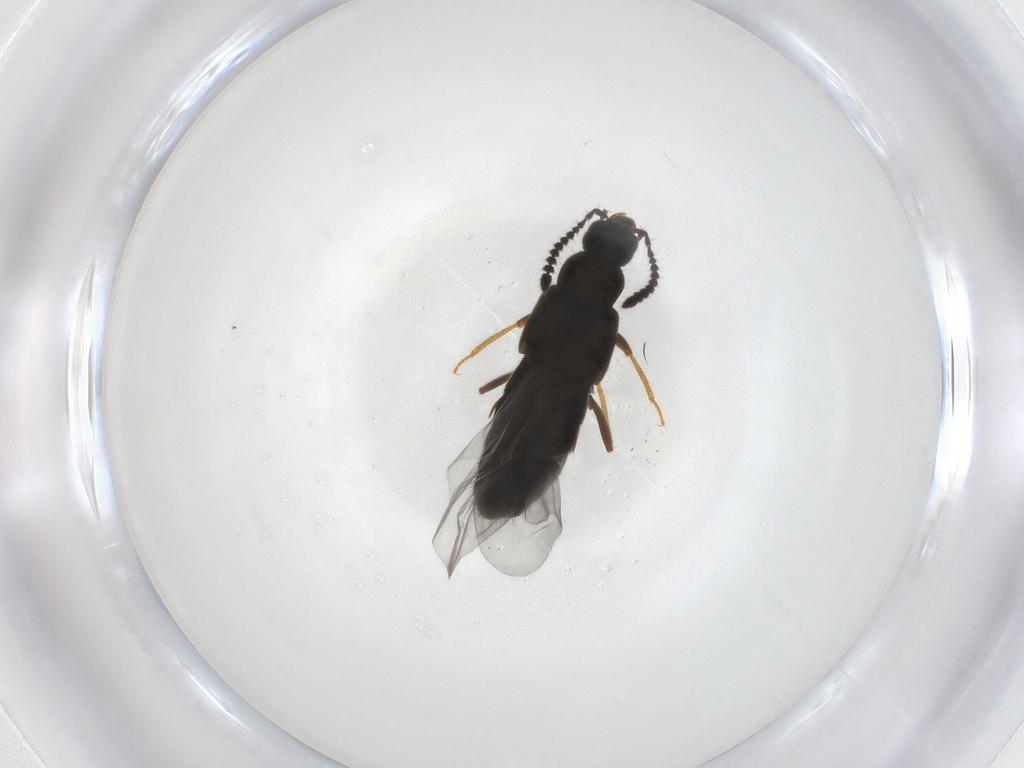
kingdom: Animalia
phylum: Arthropoda
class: Insecta
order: Coleoptera
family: Staphylinidae
